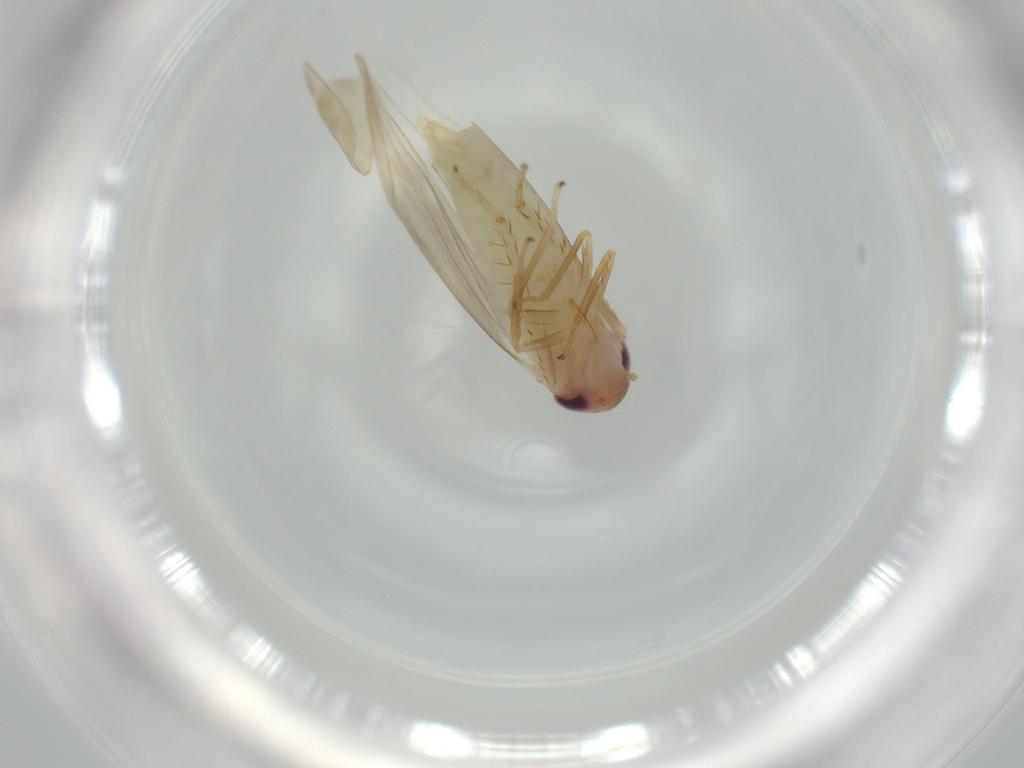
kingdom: Animalia
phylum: Arthropoda
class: Insecta
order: Hemiptera
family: Cicadellidae
